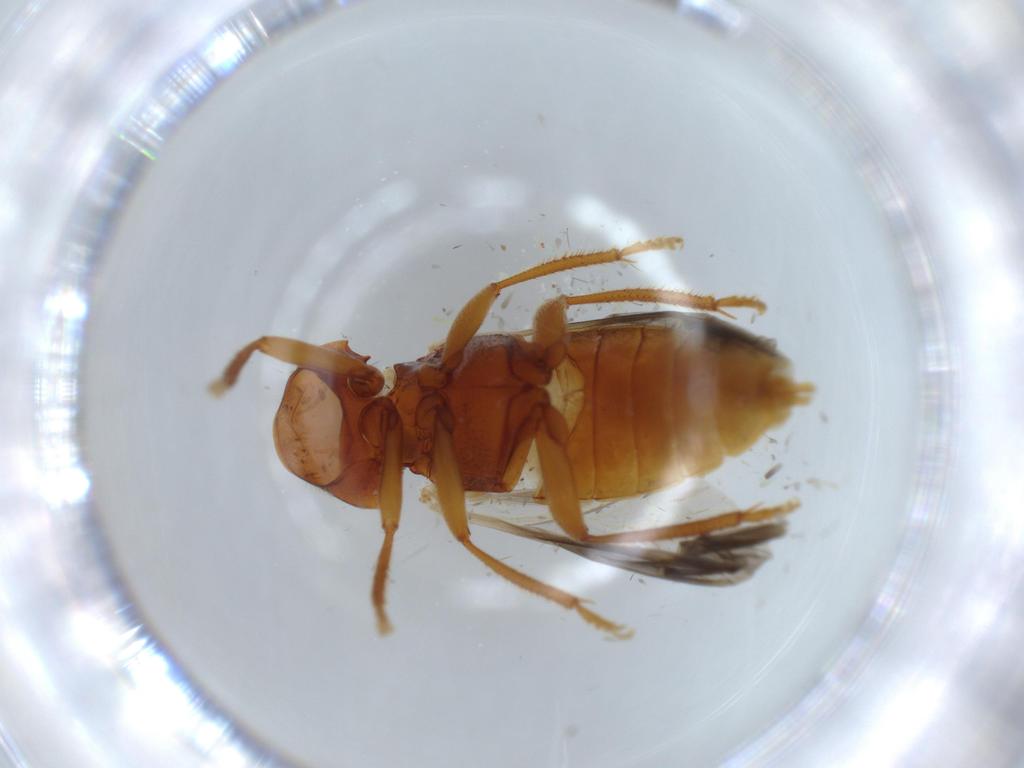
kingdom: Animalia
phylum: Arthropoda
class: Insecta
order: Coleoptera
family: Ptilodactylidae
